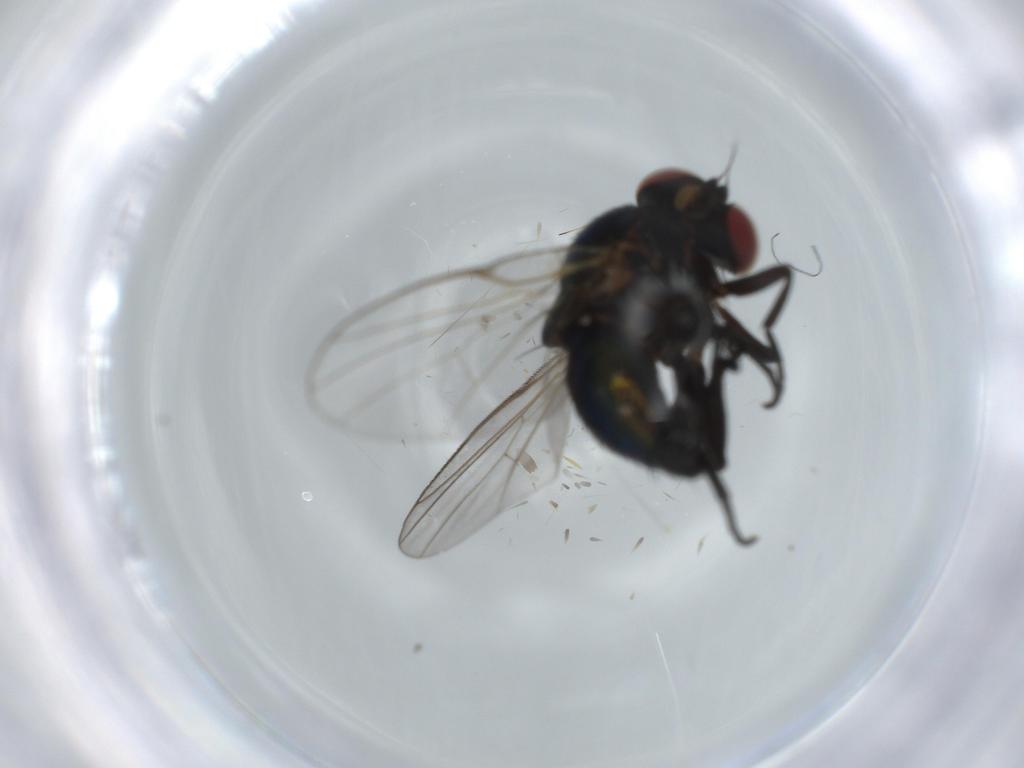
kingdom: Animalia
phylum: Arthropoda
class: Insecta
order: Diptera
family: Agromyzidae
